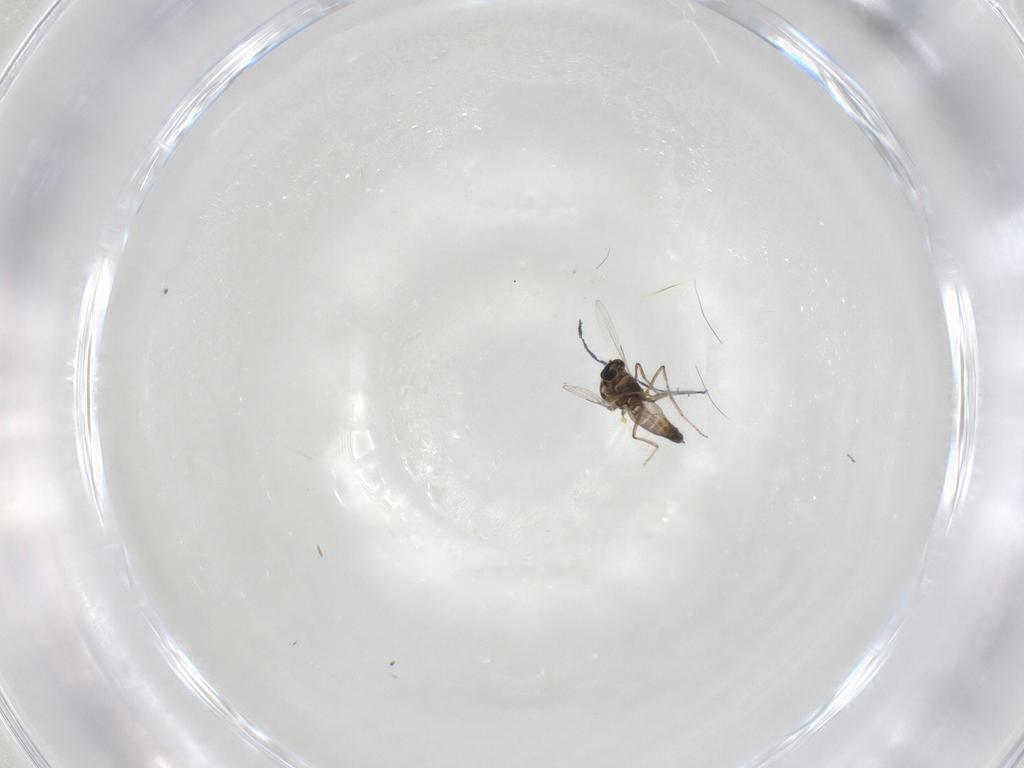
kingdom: Animalia
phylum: Arthropoda
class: Insecta
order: Diptera
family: Ceratopogonidae
